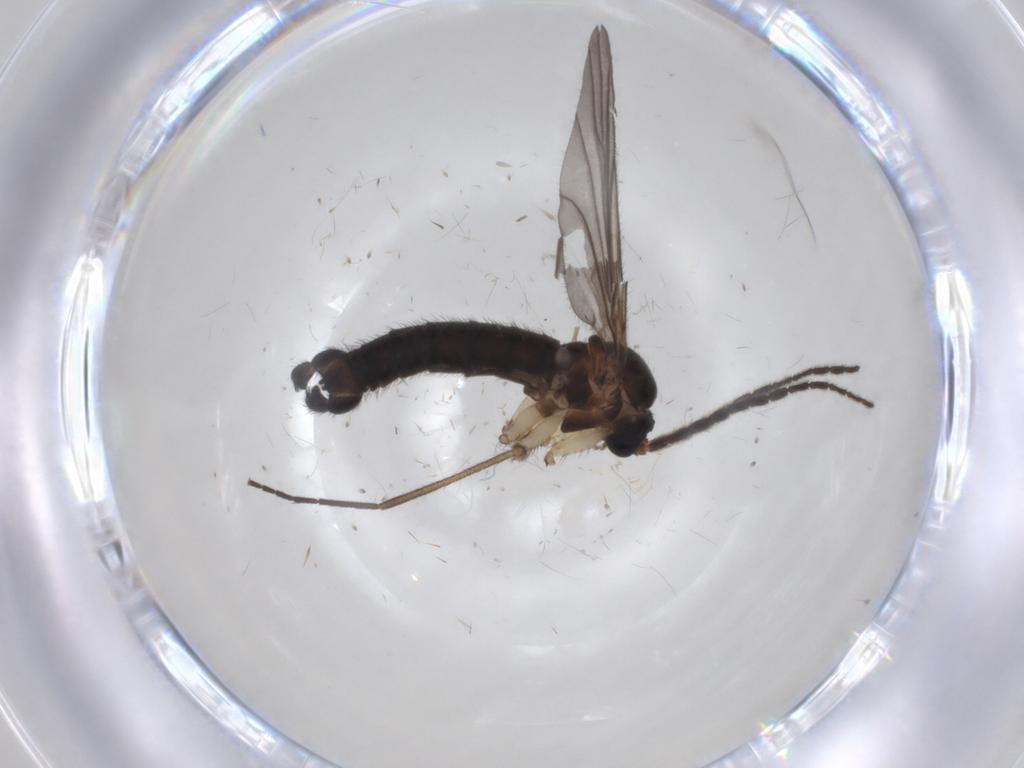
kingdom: Animalia
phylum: Arthropoda
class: Insecta
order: Diptera
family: Sciaridae
